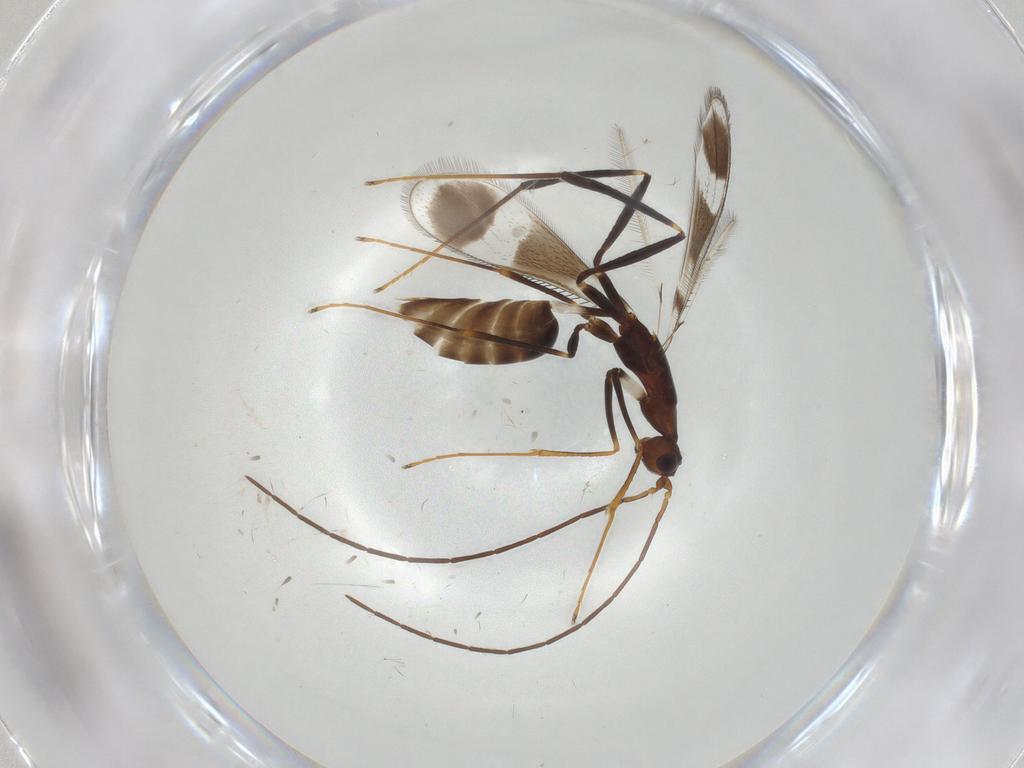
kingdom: Animalia
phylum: Arthropoda
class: Insecta
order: Hymenoptera
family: Mymaridae
